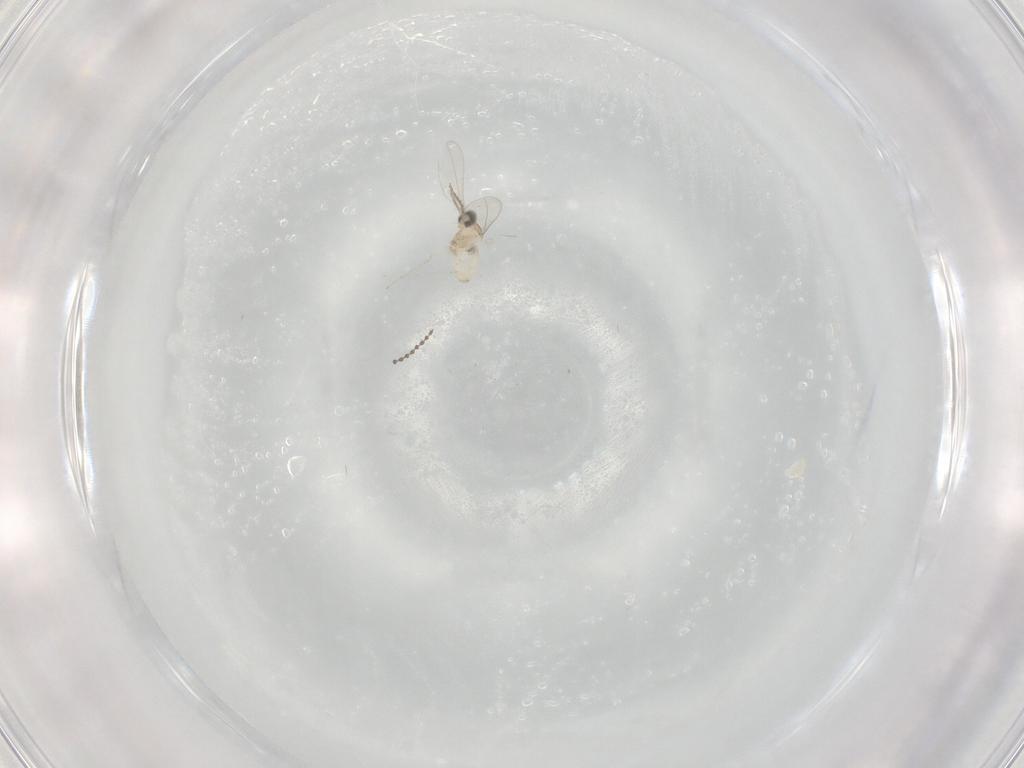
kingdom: Animalia
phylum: Arthropoda
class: Insecta
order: Diptera
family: Cecidomyiidae
